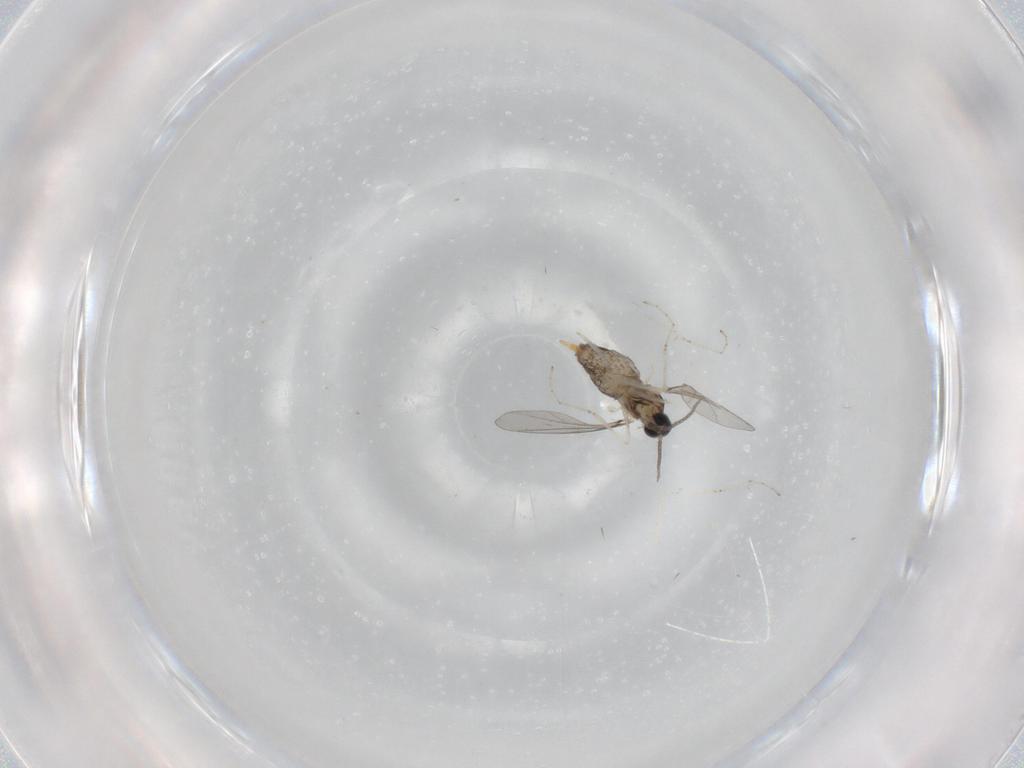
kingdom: Animalia
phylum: Arthropoda
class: Insecta
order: Diptera
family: Cecidomyiidae
